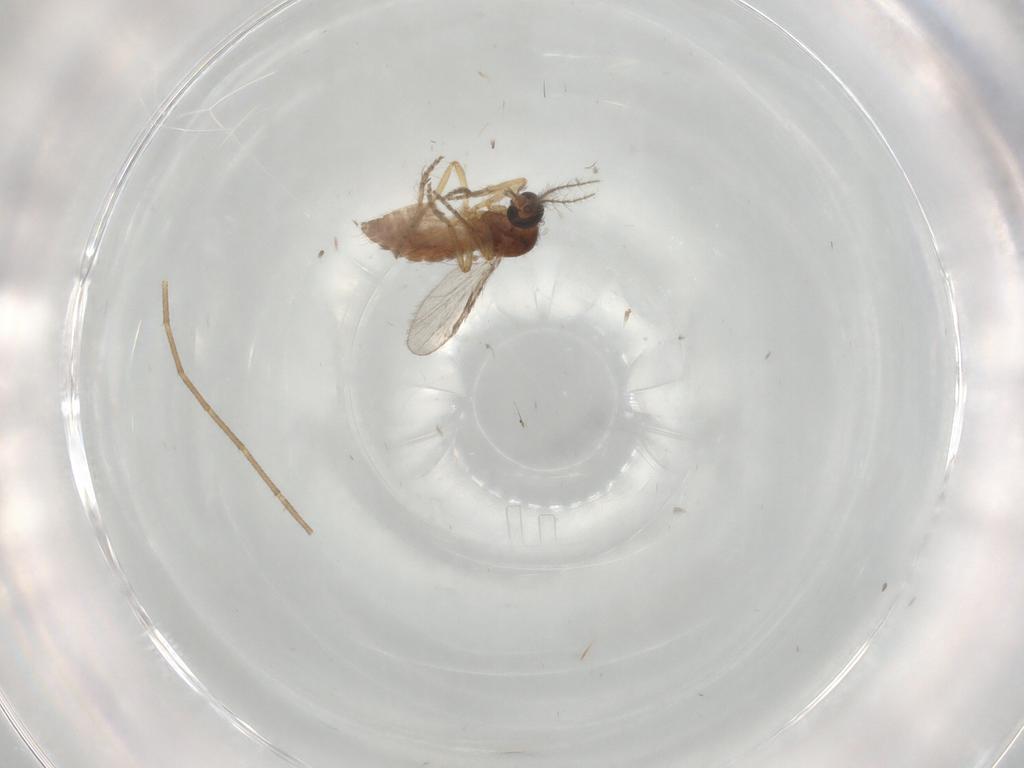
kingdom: Animalia
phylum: Arthropoda
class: Insecta
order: Diptera
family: Ceratopogonidae
